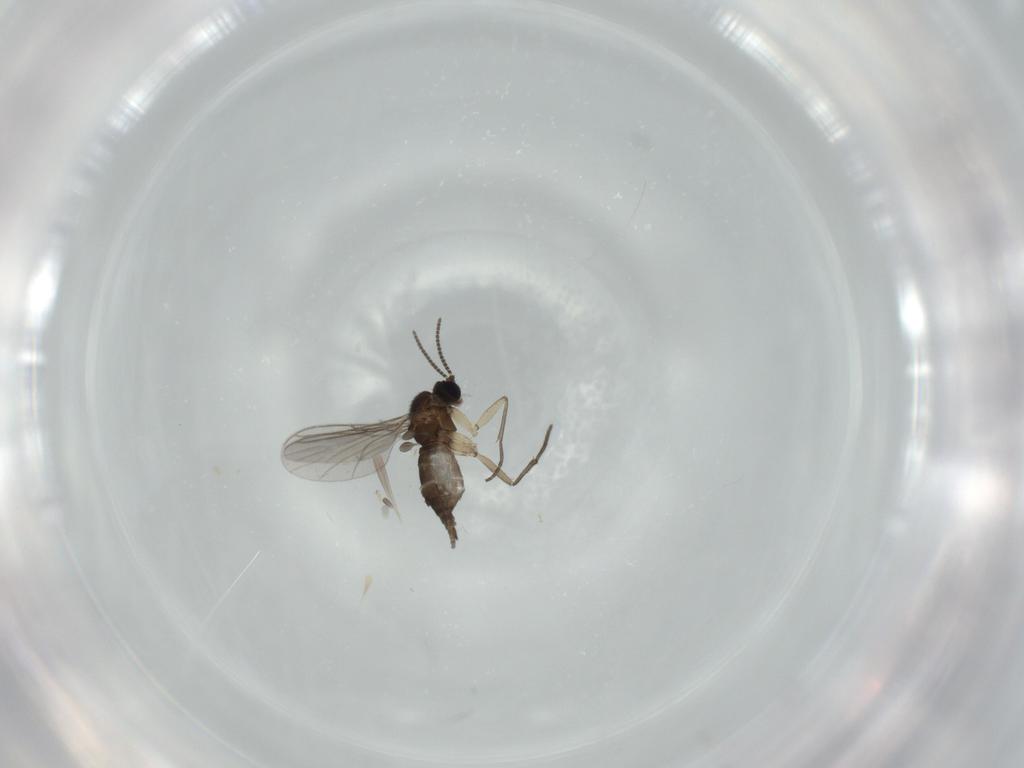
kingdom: Animalia
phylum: Arthropoda
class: Insecta
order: Diptera
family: Sciaridae
